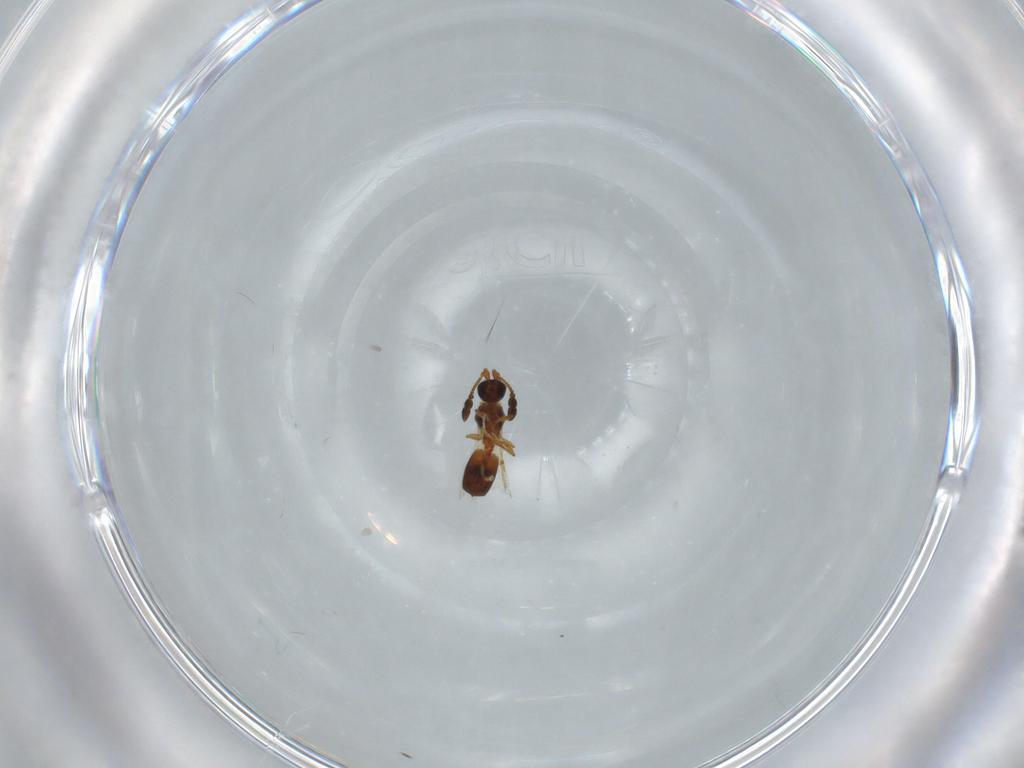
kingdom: Animalia
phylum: Arthropoda
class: Insecta
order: Hymenoptera
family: Diapriidae
